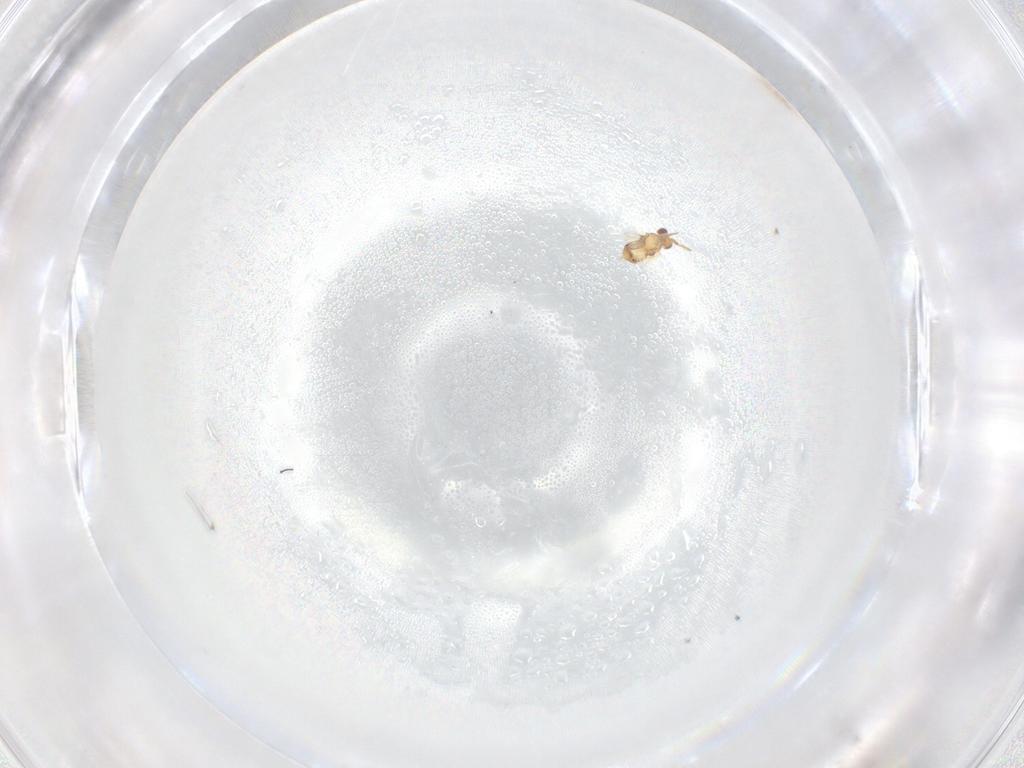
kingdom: Animalia
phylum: Arthropoda
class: Insecta
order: Hymenoptera
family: Aphelinidae
